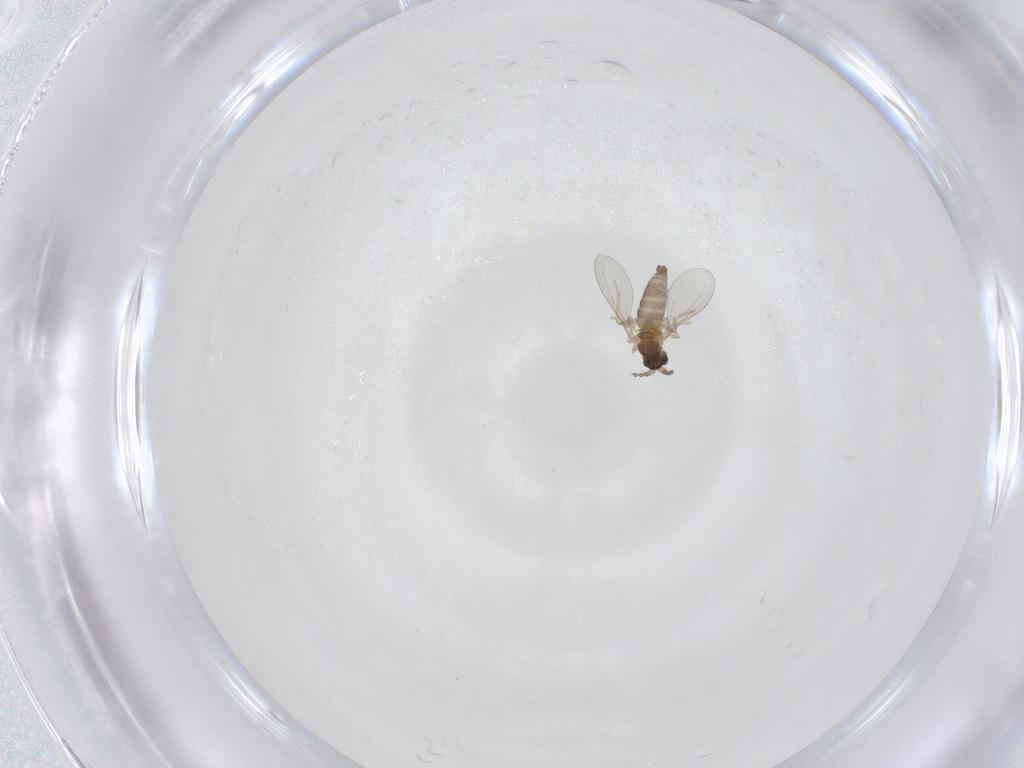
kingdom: Animalia
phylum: Arthropoda
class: Insecta
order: Diptera
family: Cecidomyiidae
